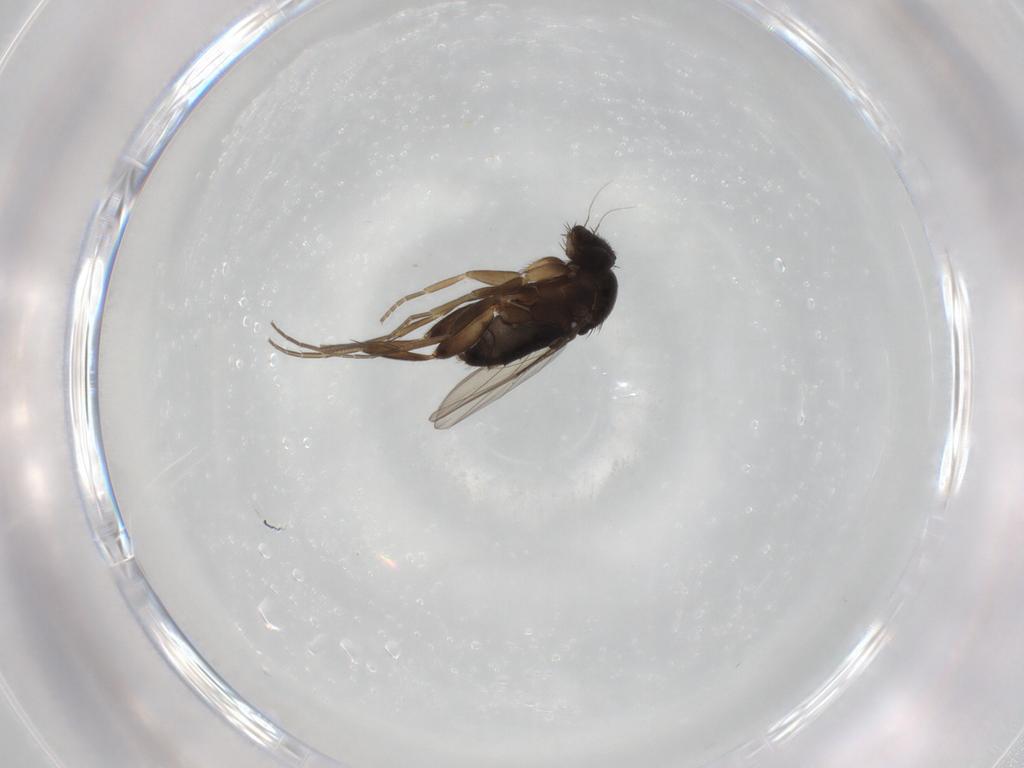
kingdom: Animalia
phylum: Arthropoda
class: Insecta
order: Diptera
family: Phoridae
